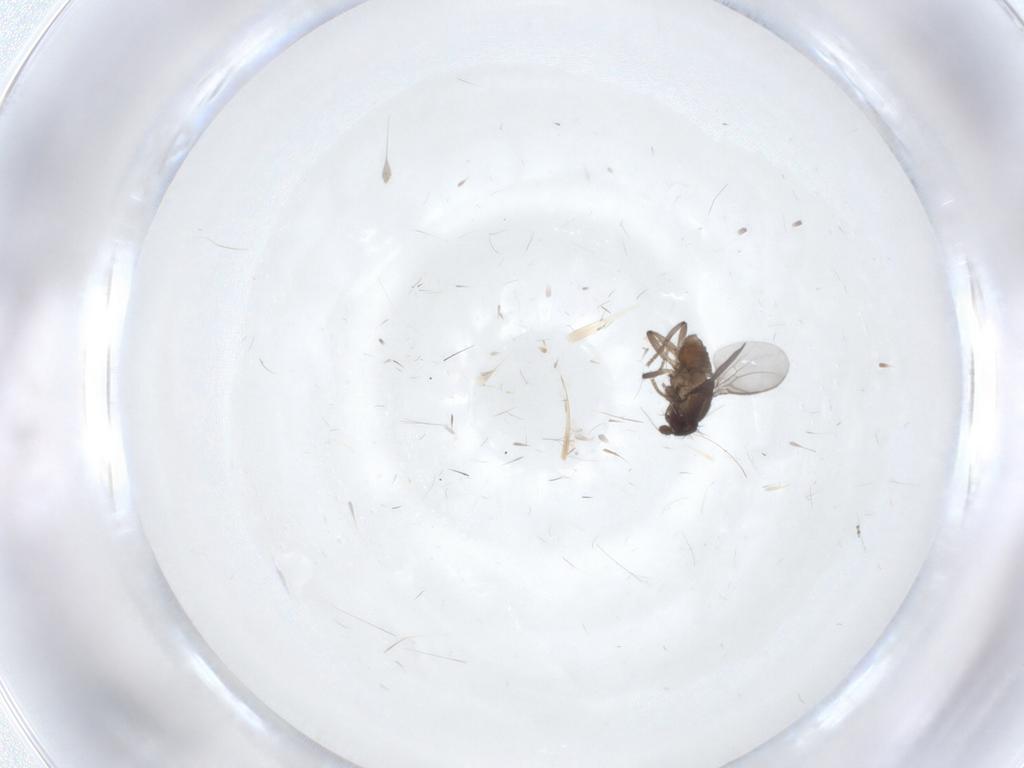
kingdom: Animalia
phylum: Arthropoda
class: Insecta
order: Diptera
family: Sphaeroceridae
